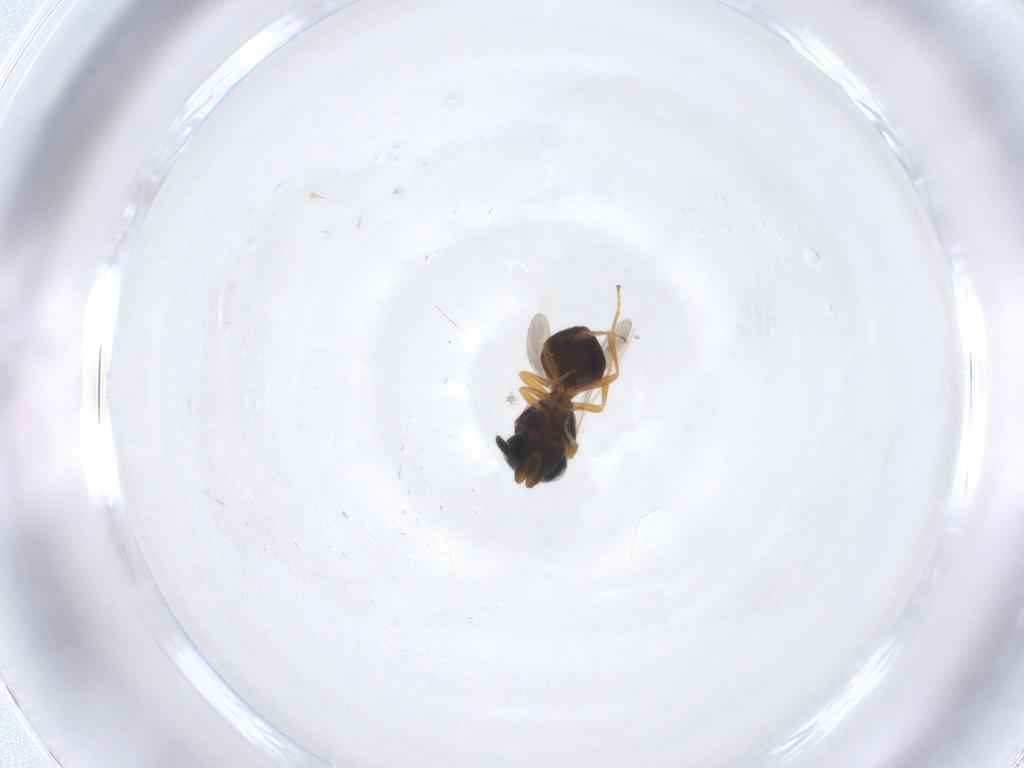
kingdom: Animalia
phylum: Arthropoda
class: Insecta
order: Hymenoptera
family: Scelionidae
